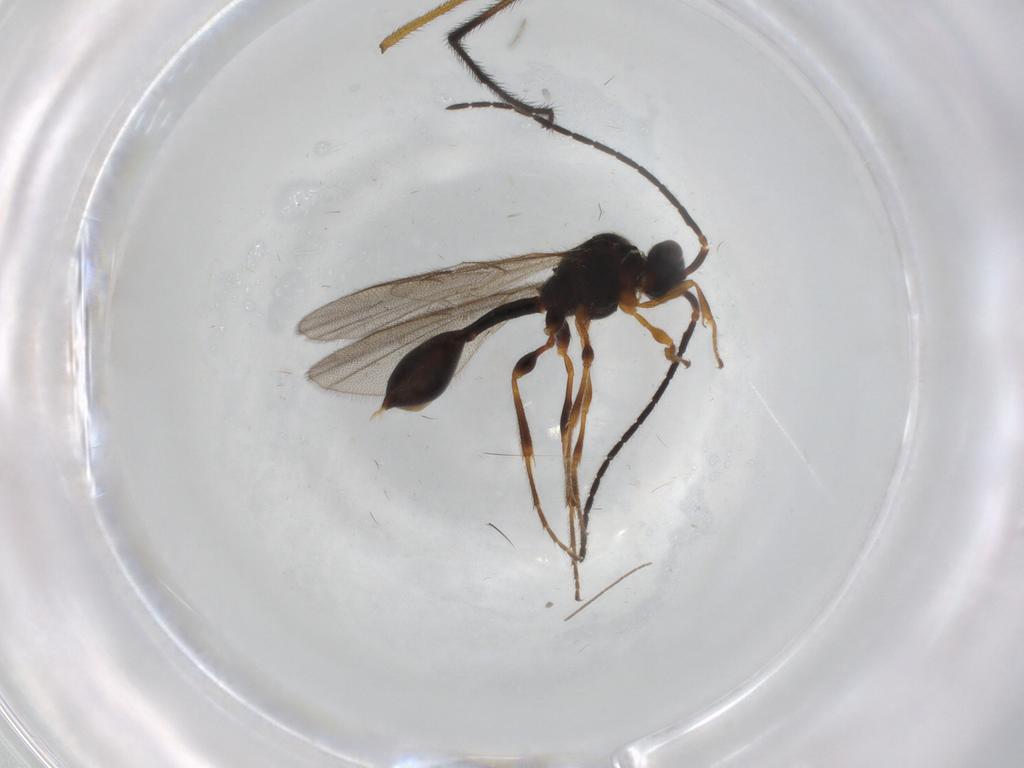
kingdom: Animalia
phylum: Arthropoda
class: Insecta
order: Hymenoptera
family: Diapriidae
